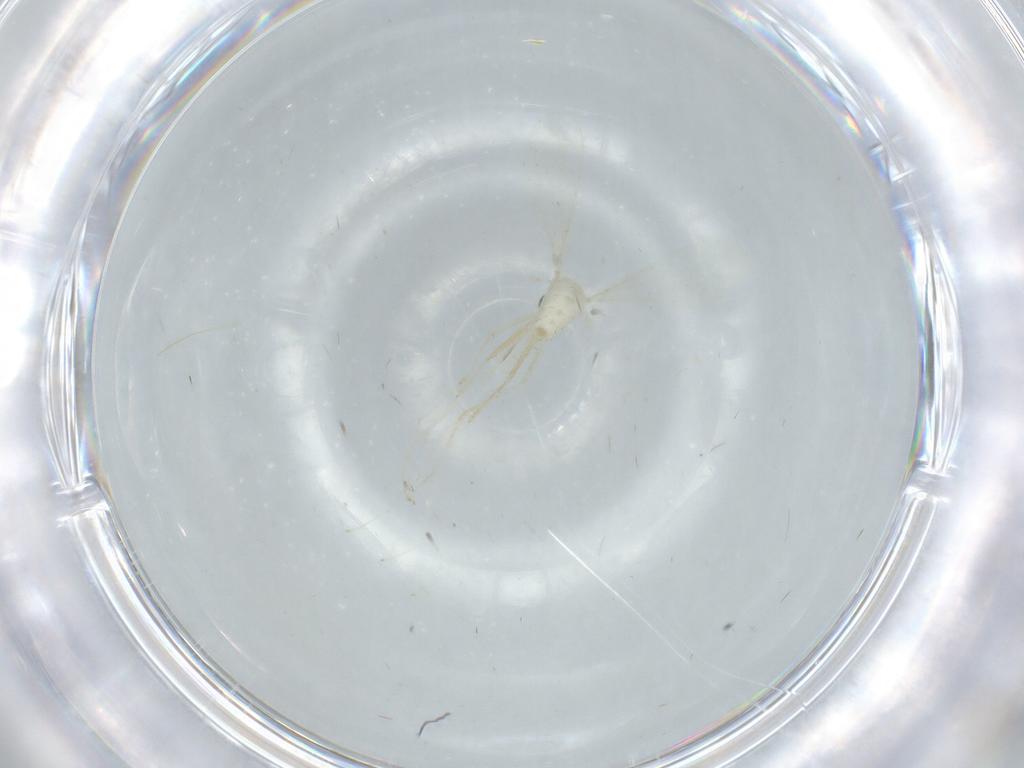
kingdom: Animalia
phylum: Arthropoda
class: Insecta
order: Diptera
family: Cecidomyiidae
